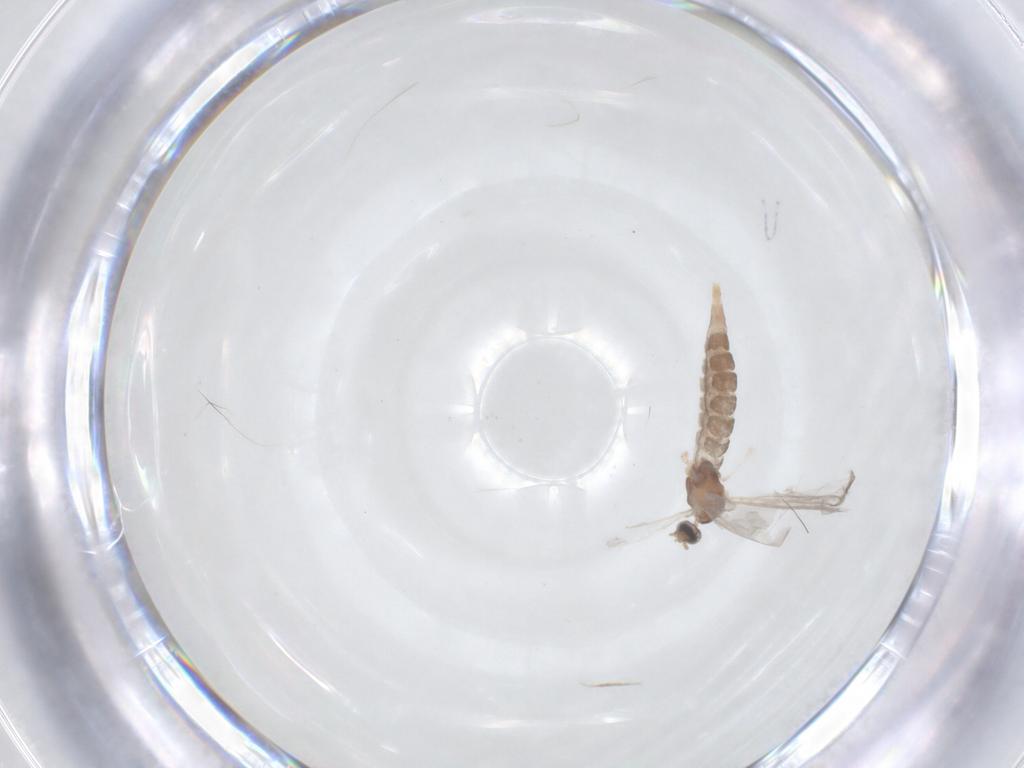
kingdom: Animalia
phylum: Arthropoda
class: Insecta
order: Diptera
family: Cecidomyiidae
